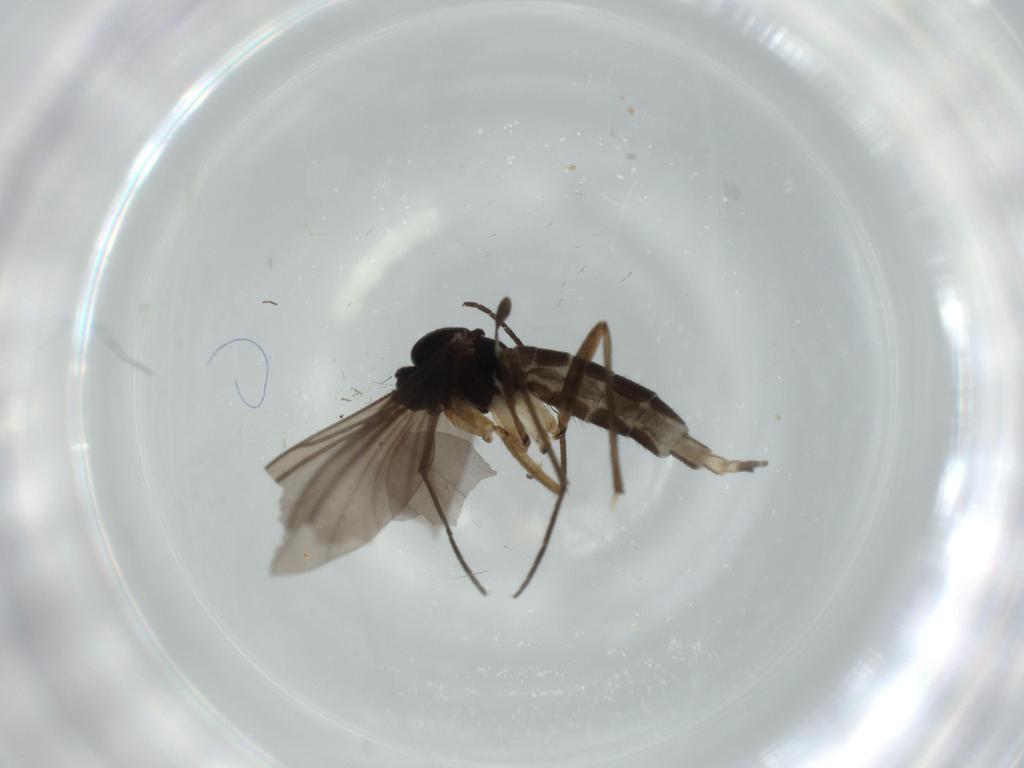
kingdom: Animalia
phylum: Arthropoda
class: Insecta
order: Diptera
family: Sciaridae
